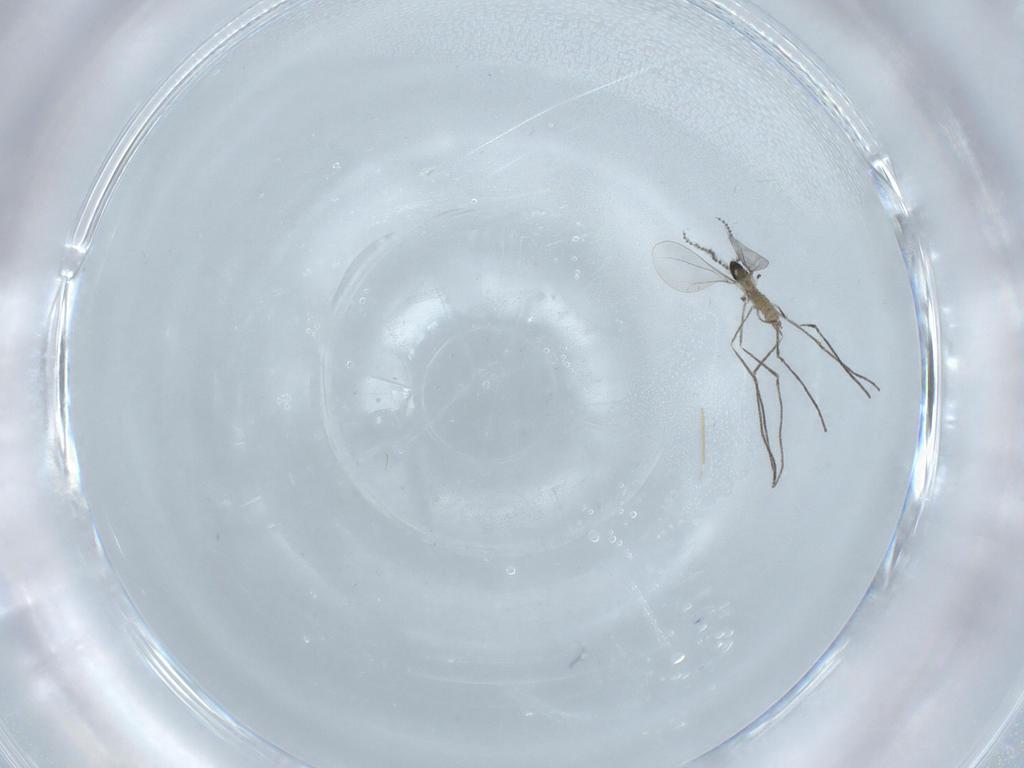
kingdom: Animalia
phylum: Arthropoda
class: Insecta
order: Diptera
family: Cecidomyiidae
